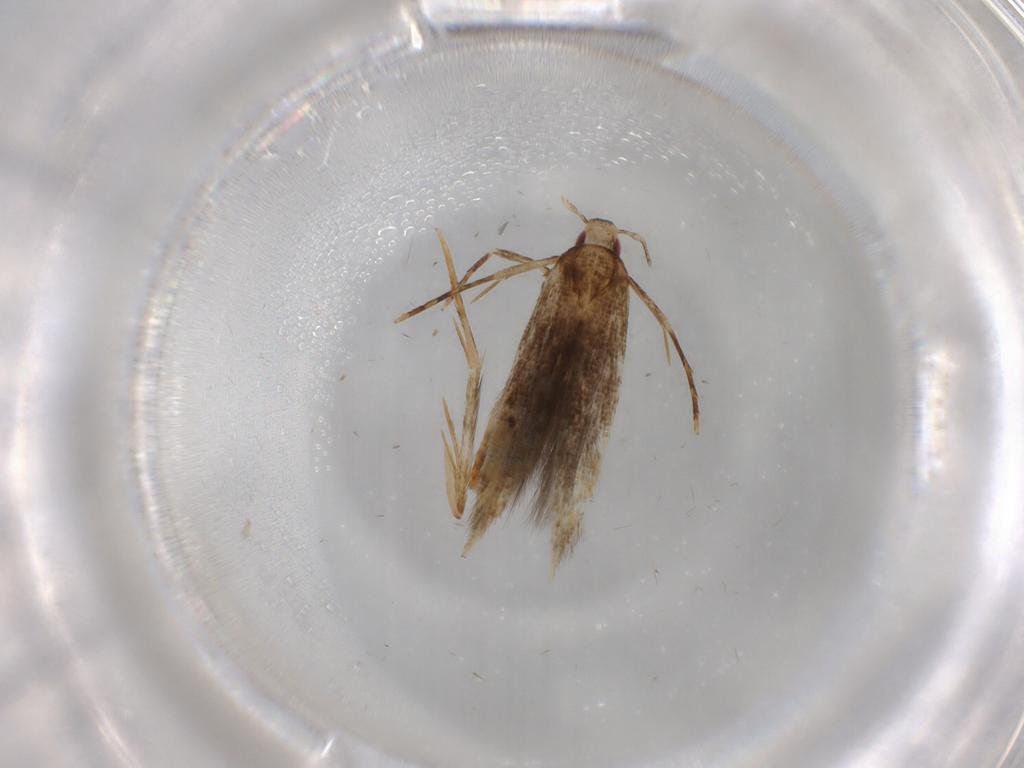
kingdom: Animalia
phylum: Arthropoda
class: Insecta
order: Lepidoptera
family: Gelechiidae
